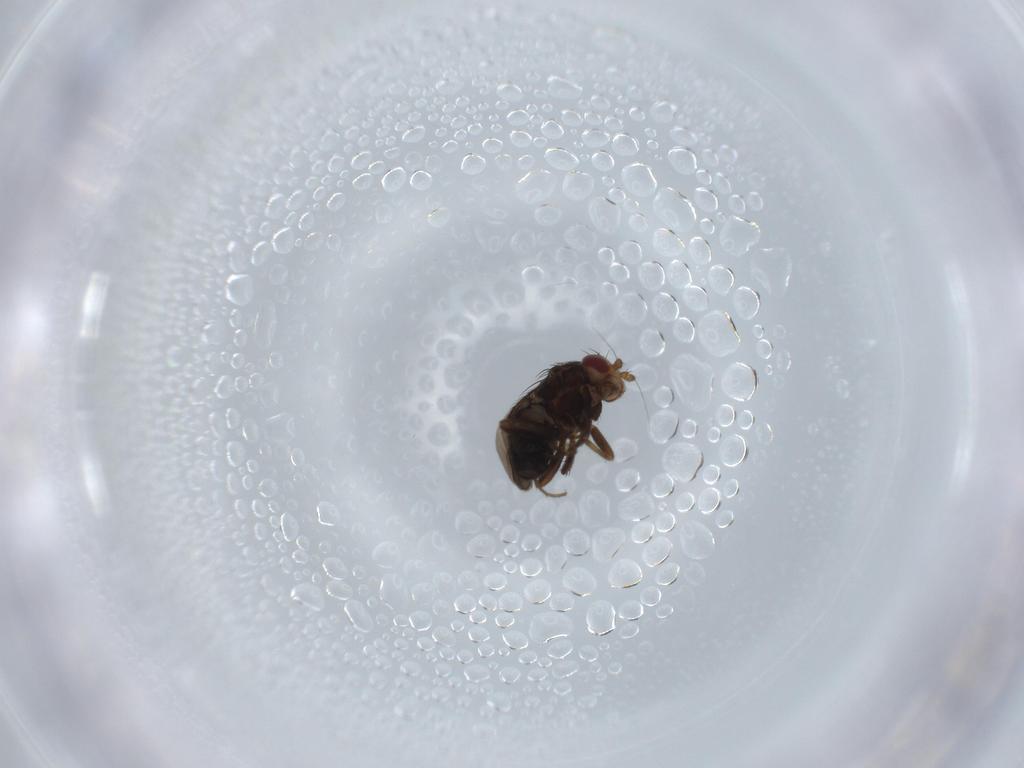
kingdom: Animalia
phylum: Arthropoda
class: Insecta
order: Diptera
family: Sphaeroceridae
